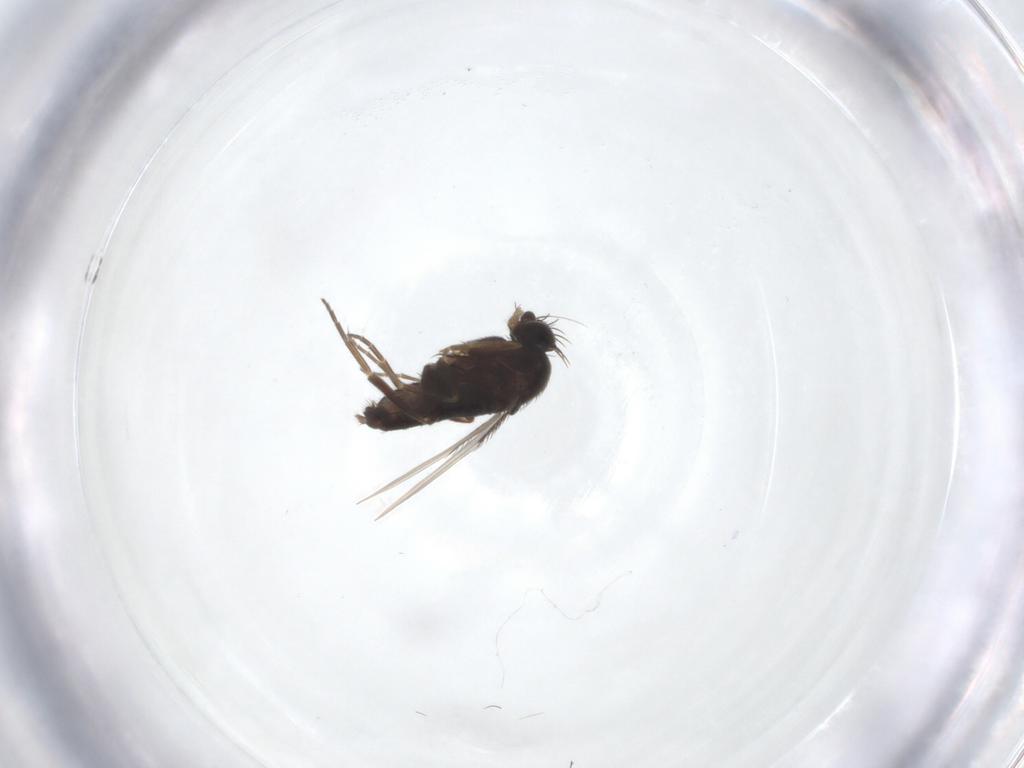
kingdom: Animalia
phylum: Arthropoda
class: Insecta
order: Diptera
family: Phoridae
